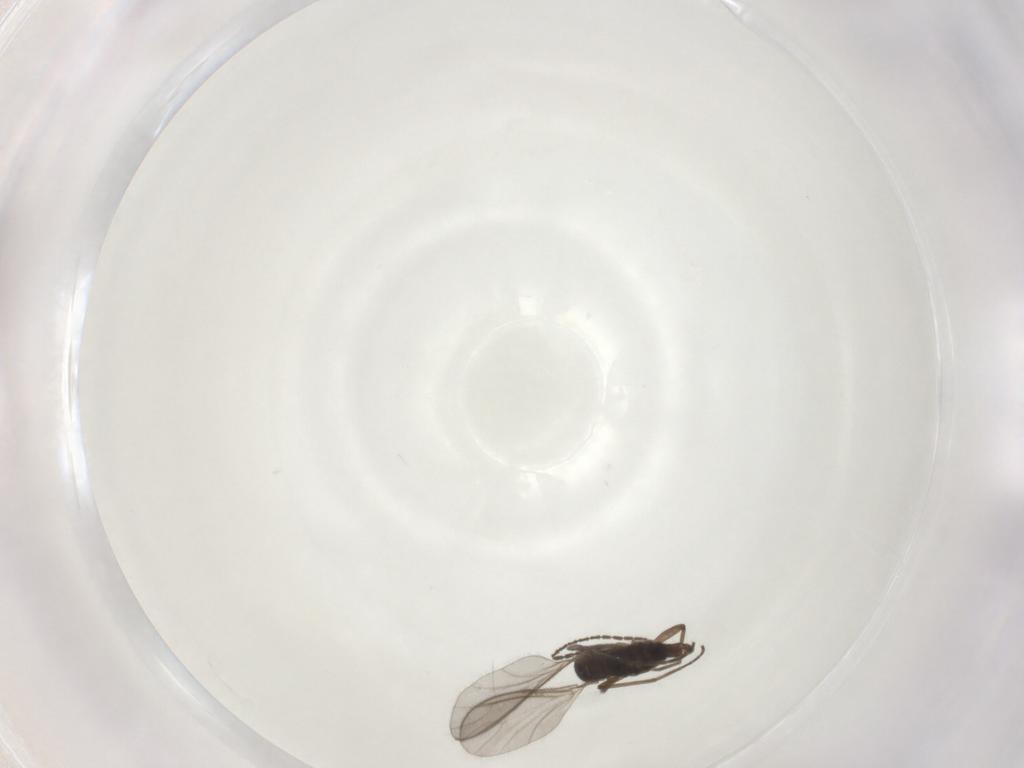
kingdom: Animalia
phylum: Arthropoda
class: Insecta
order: Diptera
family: Sciaridae
